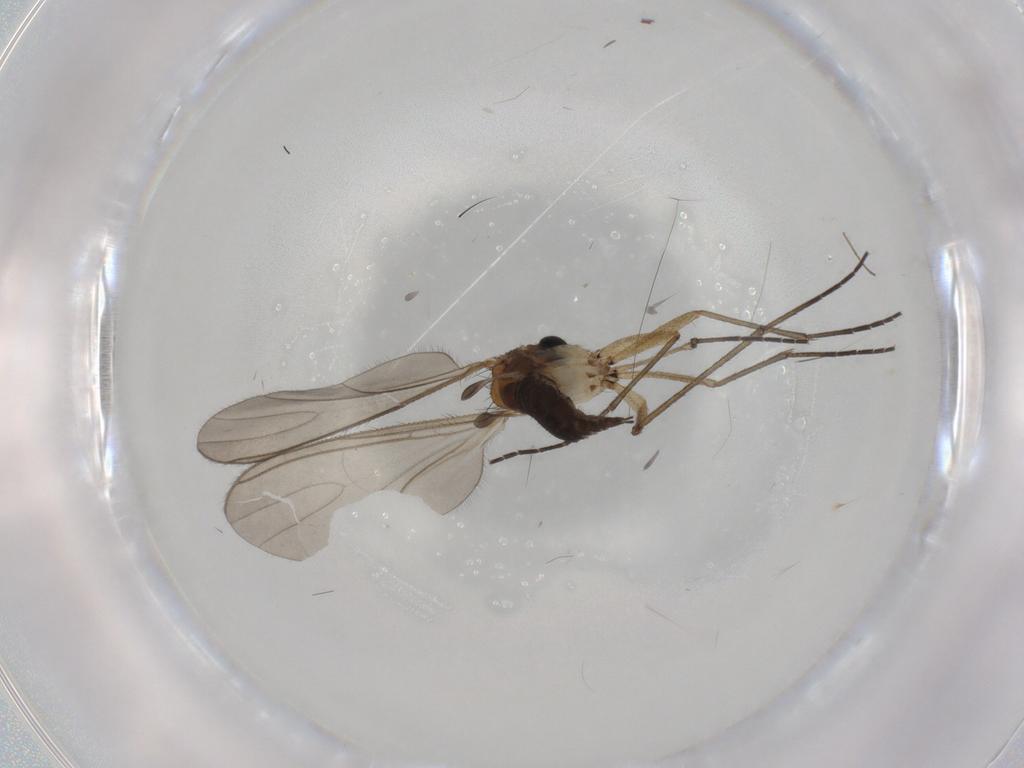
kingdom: Animalia
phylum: Arthropoda
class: Insecta
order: Diptera
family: Sciaridae
